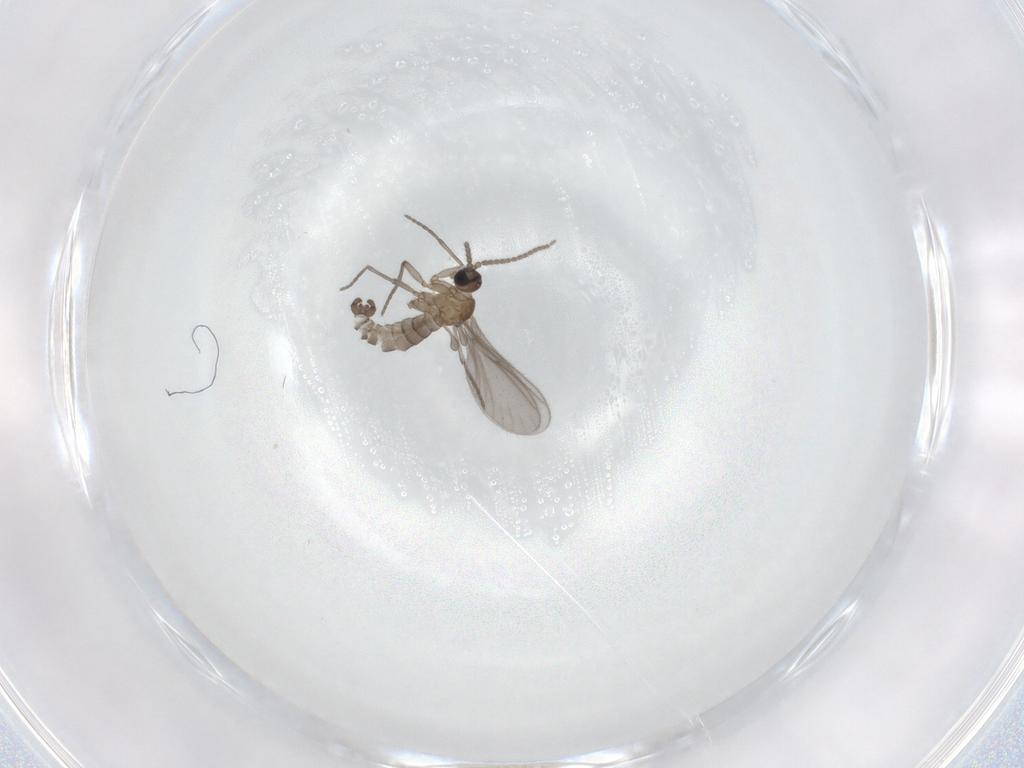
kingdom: Animalia
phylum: Arthropoda
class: Insecta
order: Diptera
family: Sciaridae
